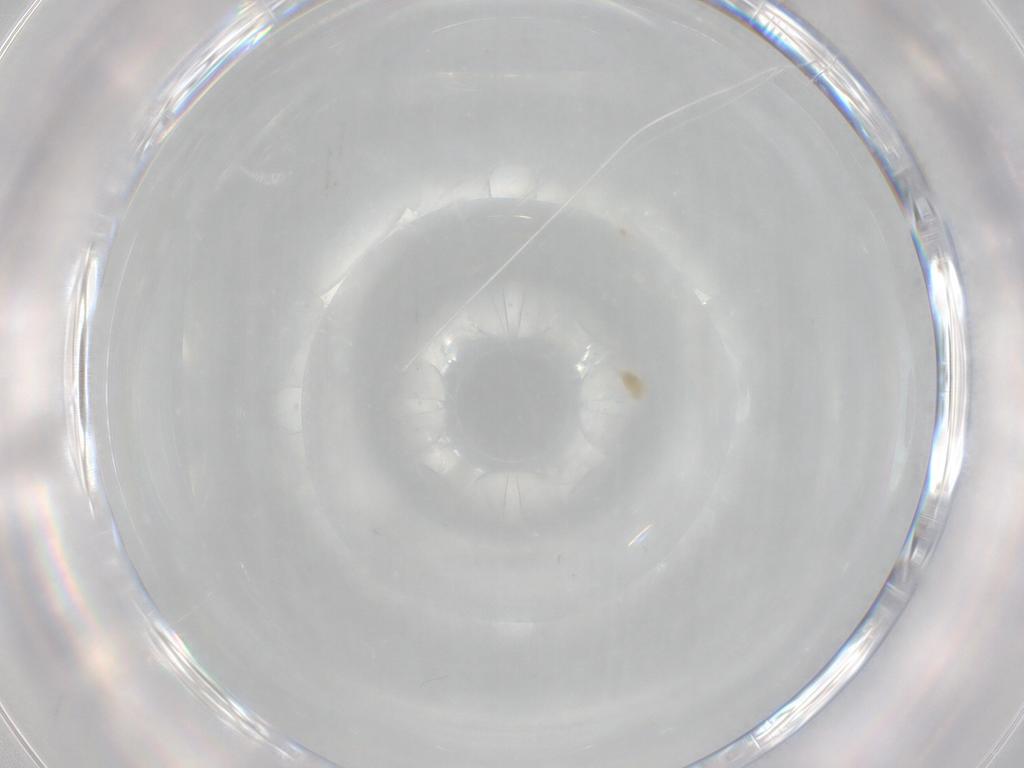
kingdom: Animalia
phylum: Arthropoda
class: Arachnida
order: Trombidiformes
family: Eupodidae
